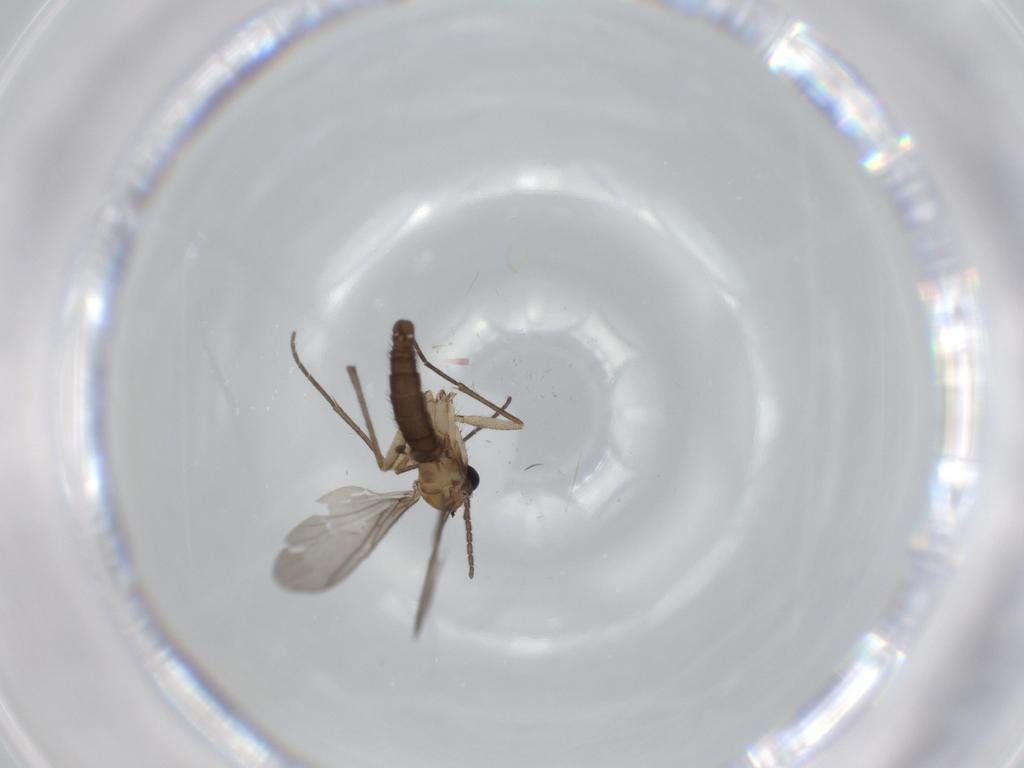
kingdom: Animalia
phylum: Arthropoda
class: Insecta
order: Diptera
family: Sciaridae
